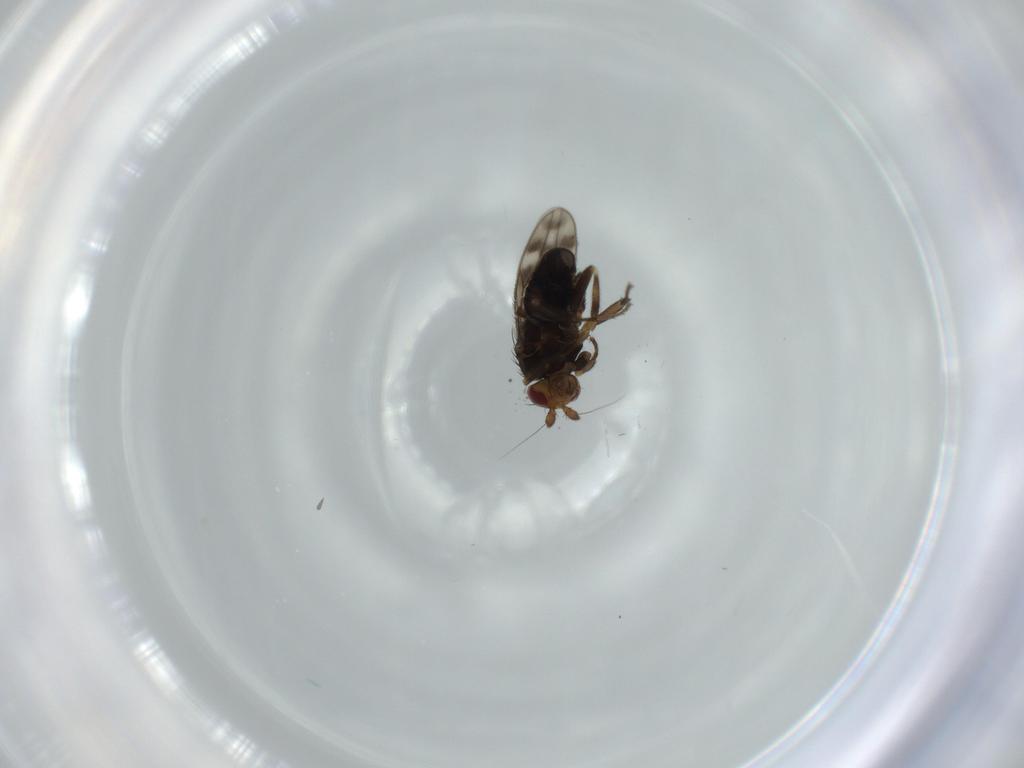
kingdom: Animalia
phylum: Arthropoda
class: Insecta
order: Diptera
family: Sphaeroceridae
